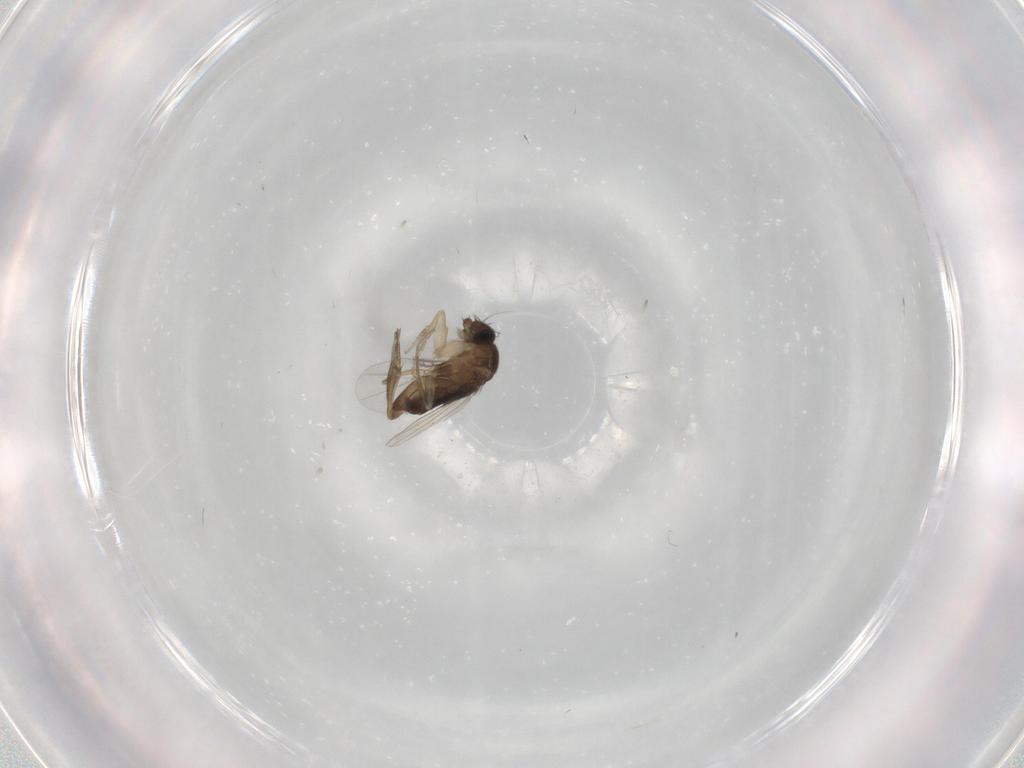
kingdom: Animalia
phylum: Arthropoda
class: Insecta
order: Diptera
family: Phoridae
